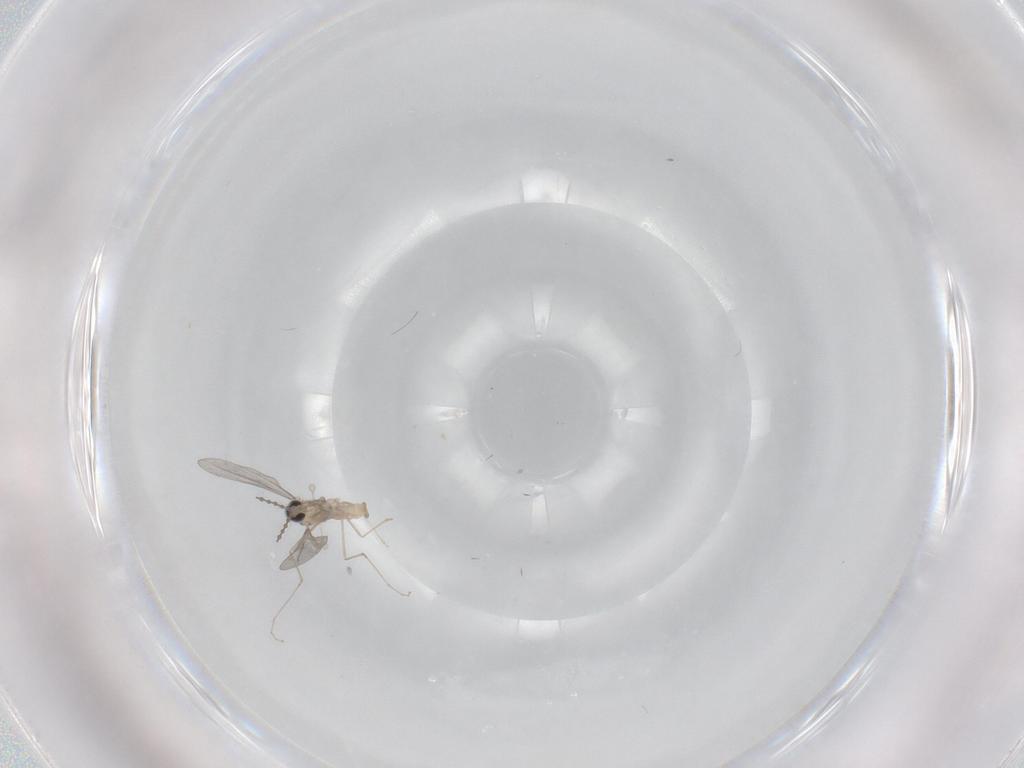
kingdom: Animalia
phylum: Arthropoda
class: Insecta
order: Diptera
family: Cecidomyiidae
